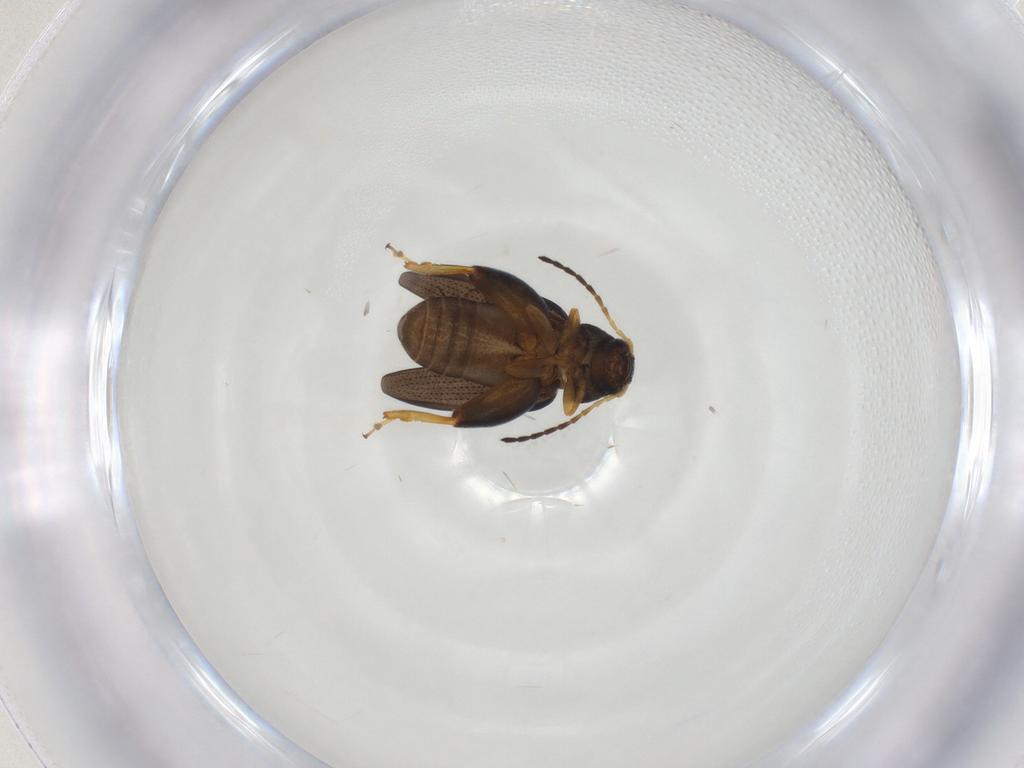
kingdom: Animalia
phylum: Arthropoda
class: Insecta
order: Coleoptera
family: Chrysomelidae
